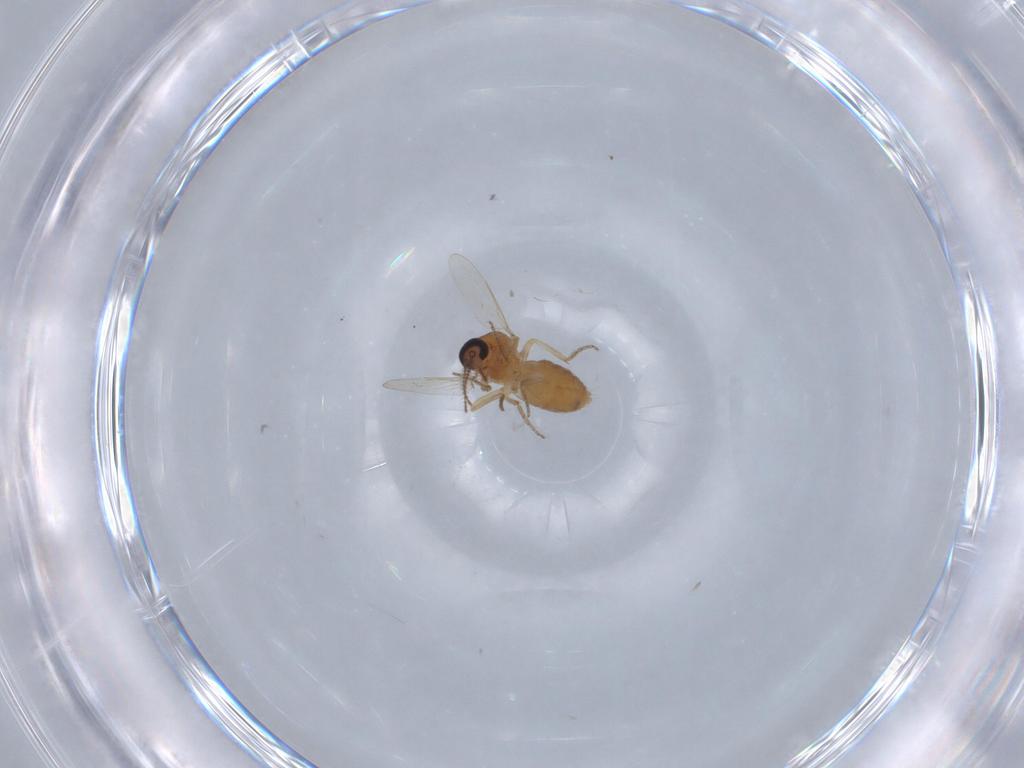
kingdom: Animalia
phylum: Arthropoda
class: Insecta
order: Diptera
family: Ceratopogonidae
